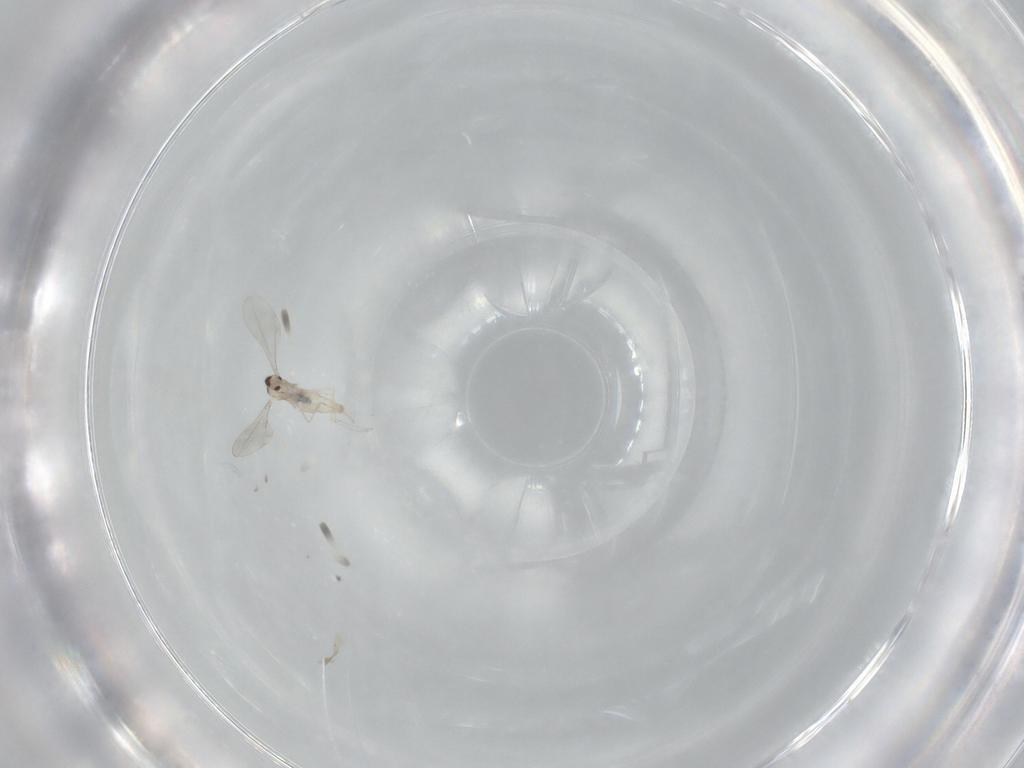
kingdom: Animalia
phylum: Arthropoda
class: Insecta
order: Diptera
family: Cecidomyiidae
